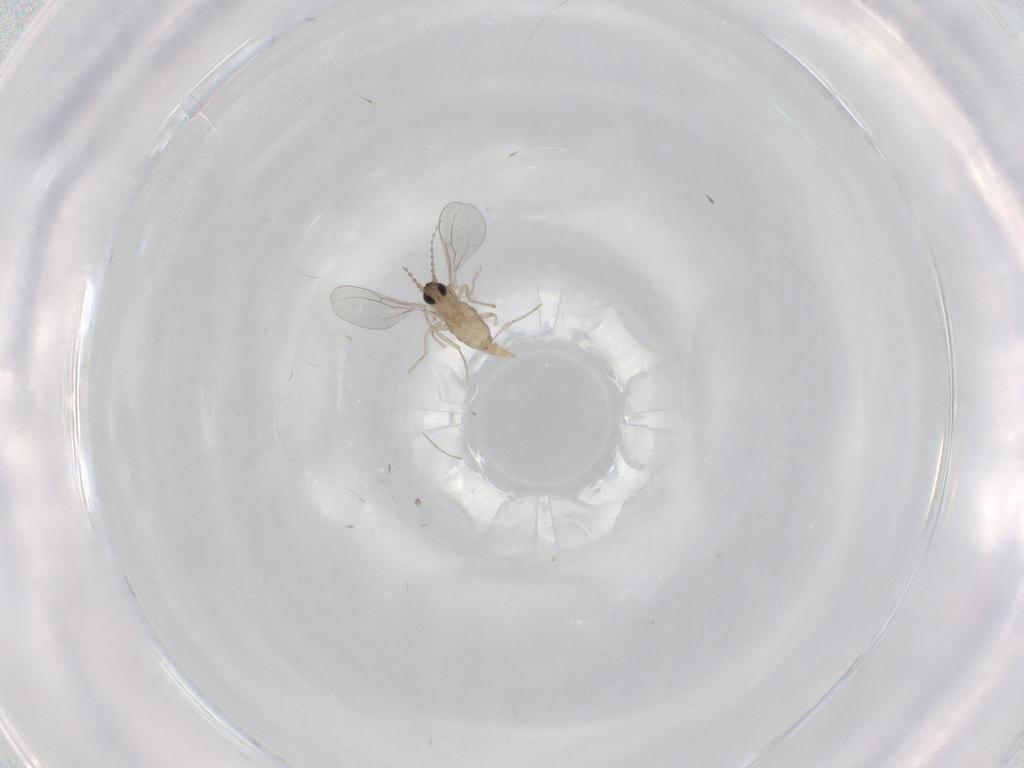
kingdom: Animalia
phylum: Arthropoda
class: Insecta
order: Diptera
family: Cecidomyiidae
